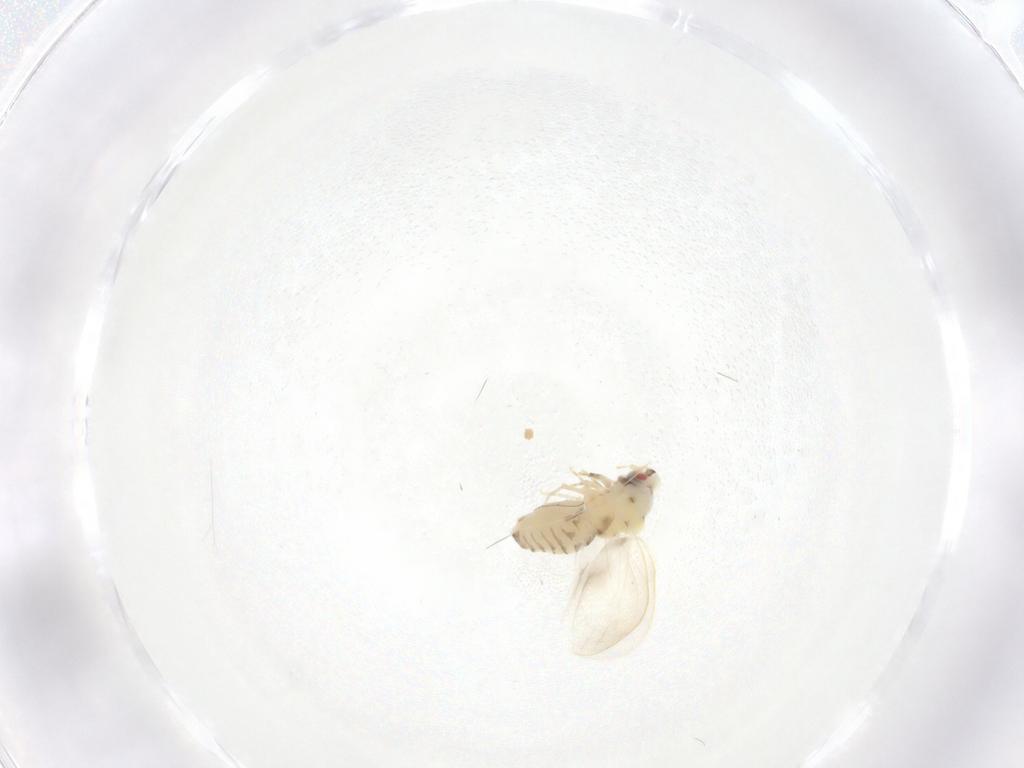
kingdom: Animalia
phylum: Arthropoda
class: Insecta
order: Hemiptera
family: Aleyrodidae
